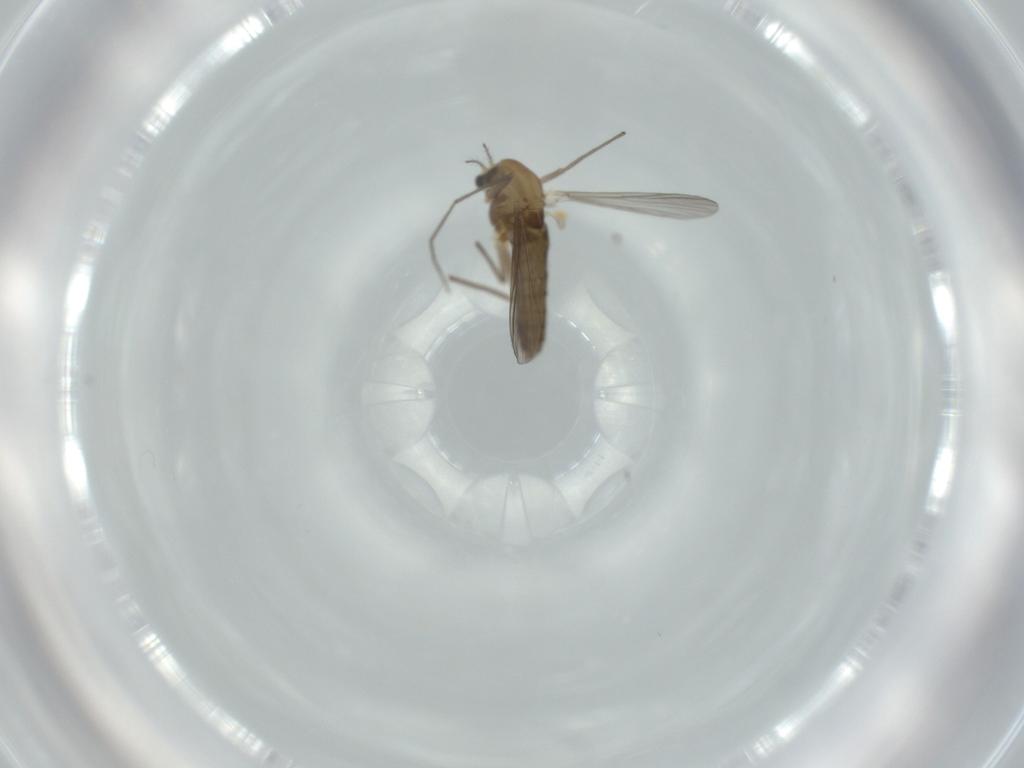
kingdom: Animalia
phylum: Arthropoda
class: Insecta
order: Diptera
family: Chironomidae
